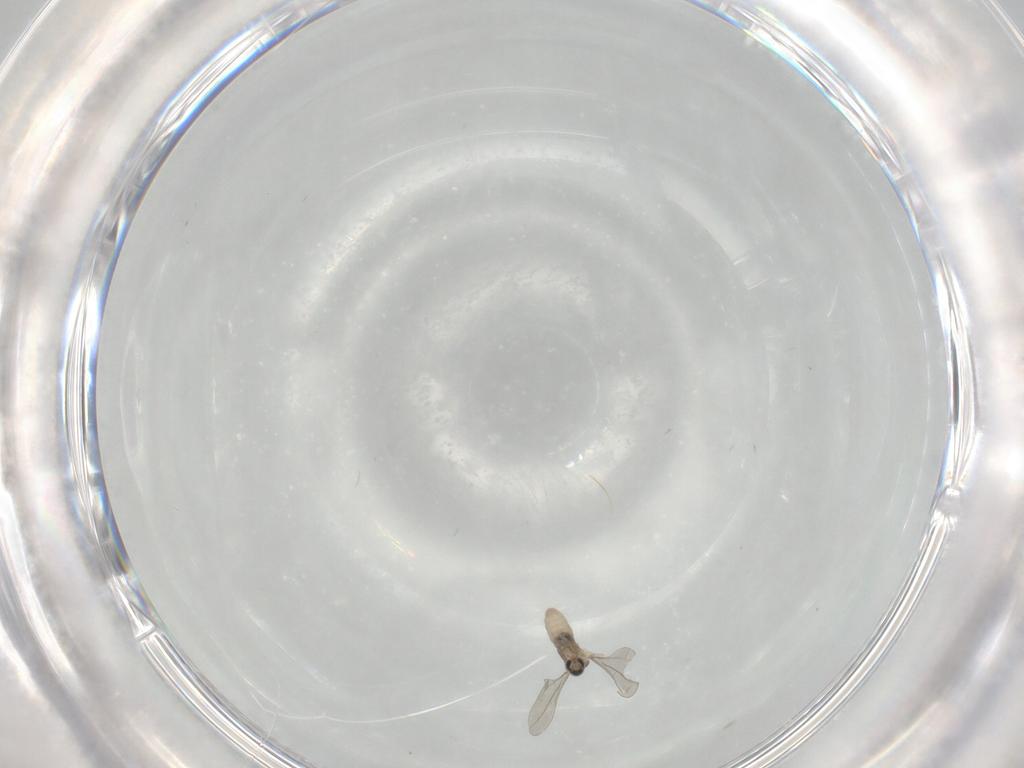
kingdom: Animalia
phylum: Arthropoda
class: Insecta
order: Diptera
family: Cecidomyiidae
